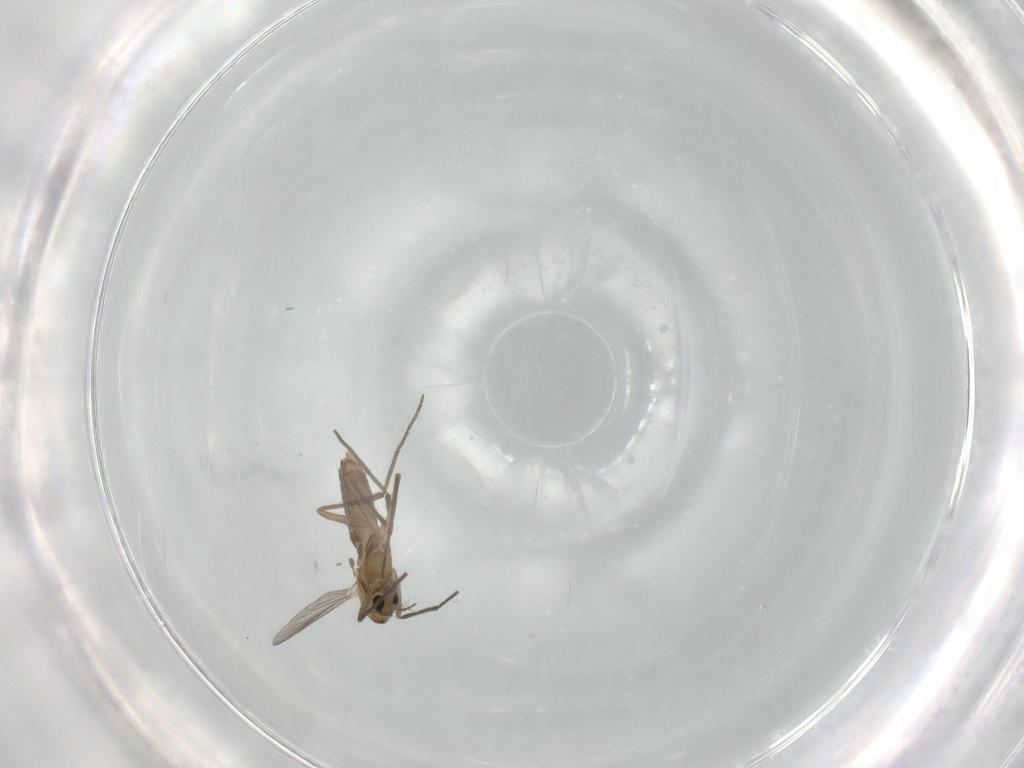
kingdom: Animalia
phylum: Arthropoda
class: Insecta
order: Diptera
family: Chironomidae
